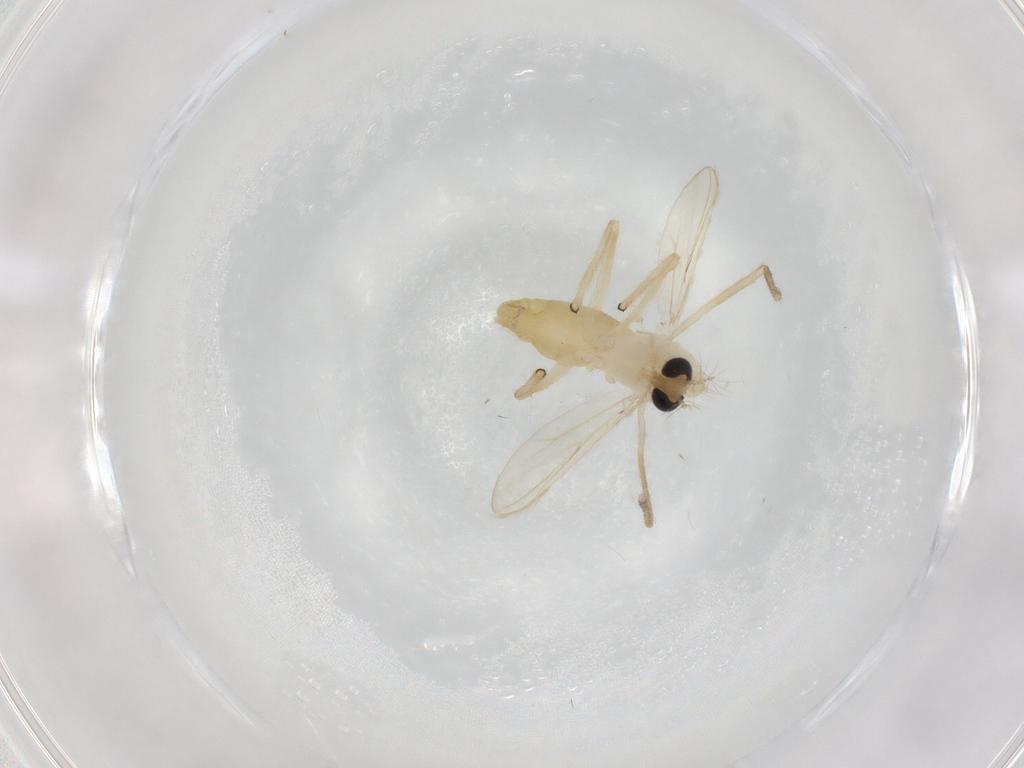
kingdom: Animalia
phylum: Arthropoda
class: Insecta
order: Diptera
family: Chironomidae
